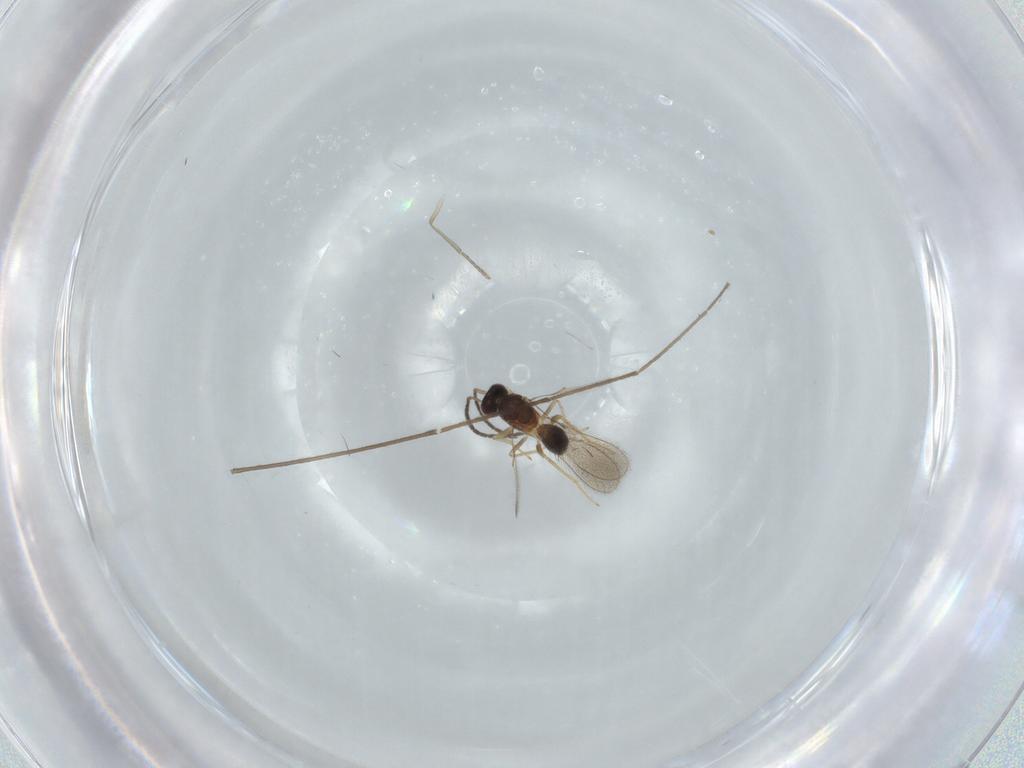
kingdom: Animalia
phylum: Arthropoda
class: Insecta
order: Hymenoptera
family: Mymaridae
